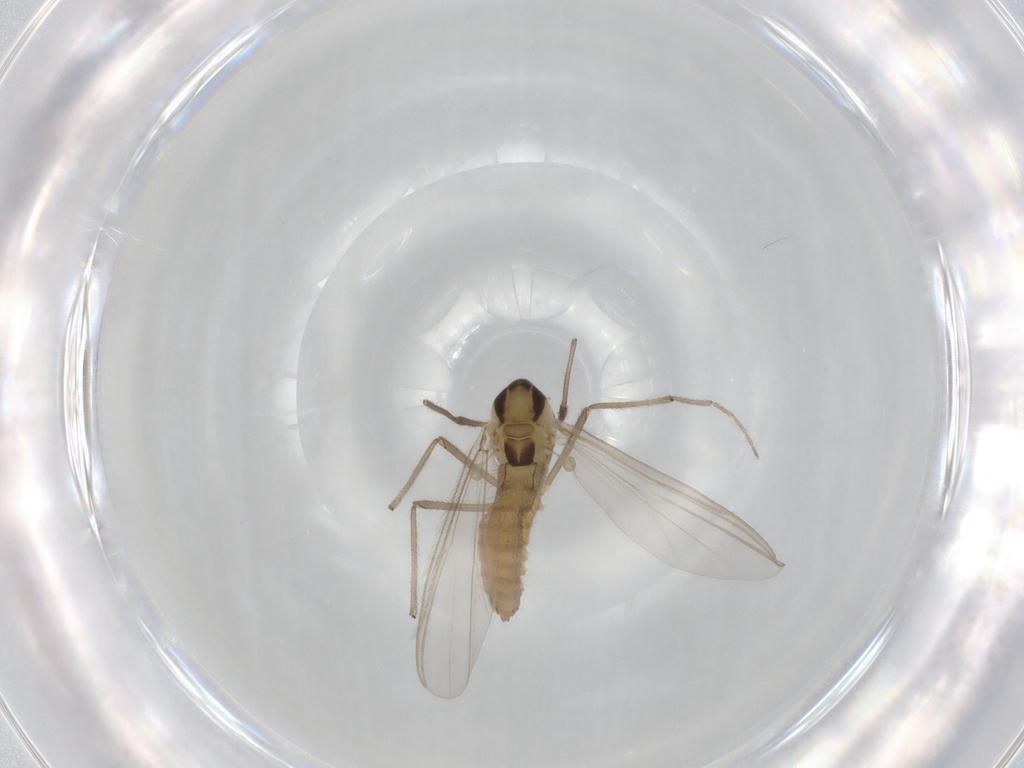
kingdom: Animalia
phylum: Arthropoda
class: Insecta
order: Diptera
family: Chironomidae
